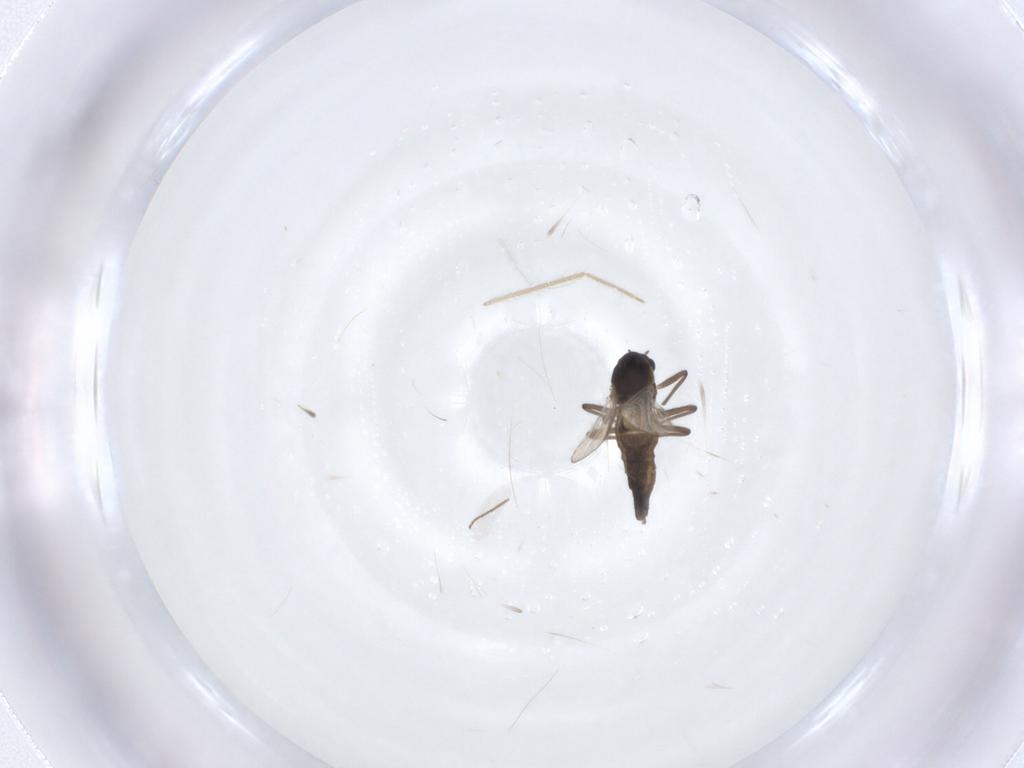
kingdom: Animalia
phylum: Arthropoda
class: Insecta
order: Diptera
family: Chironomidae
